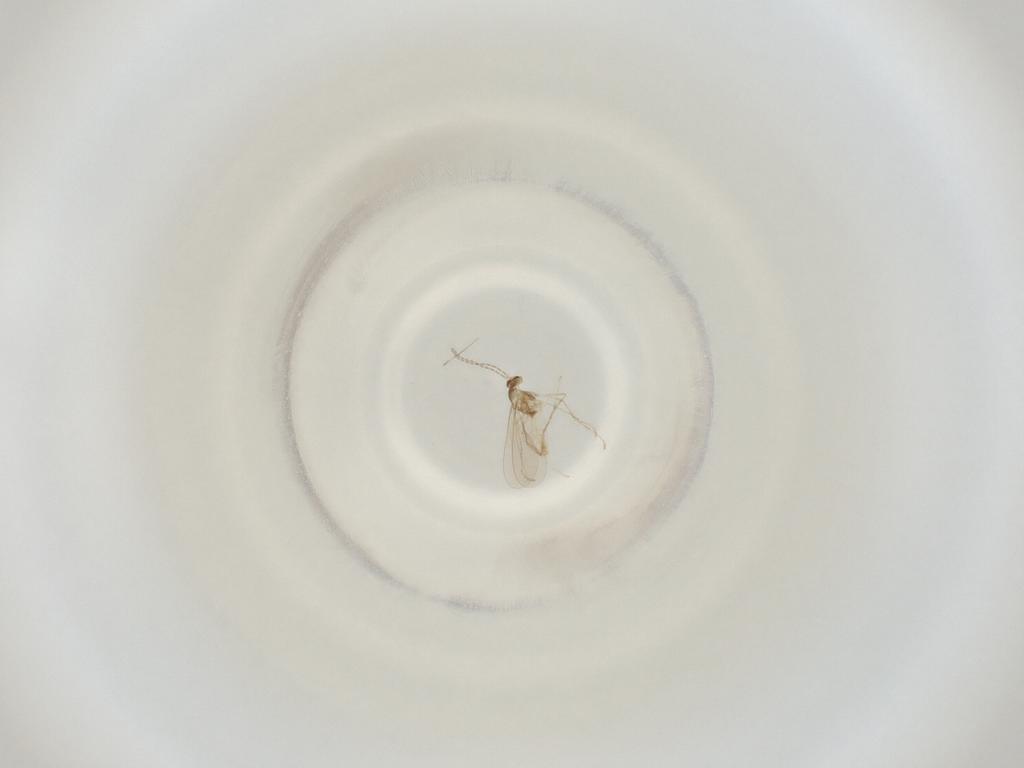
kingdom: Animalia
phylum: Arthropoda
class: Insecta
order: Diptera
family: Cecidomyiidae
